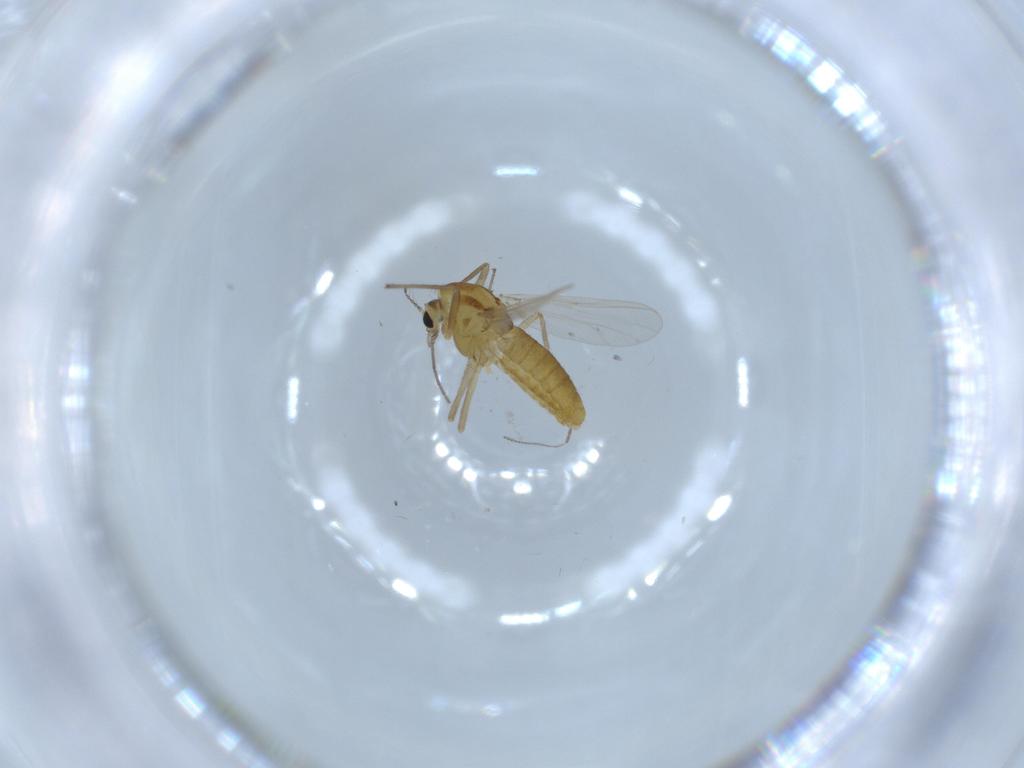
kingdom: Animalia
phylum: Arthropoda
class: Insecta
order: Diptera
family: Chironomidae
